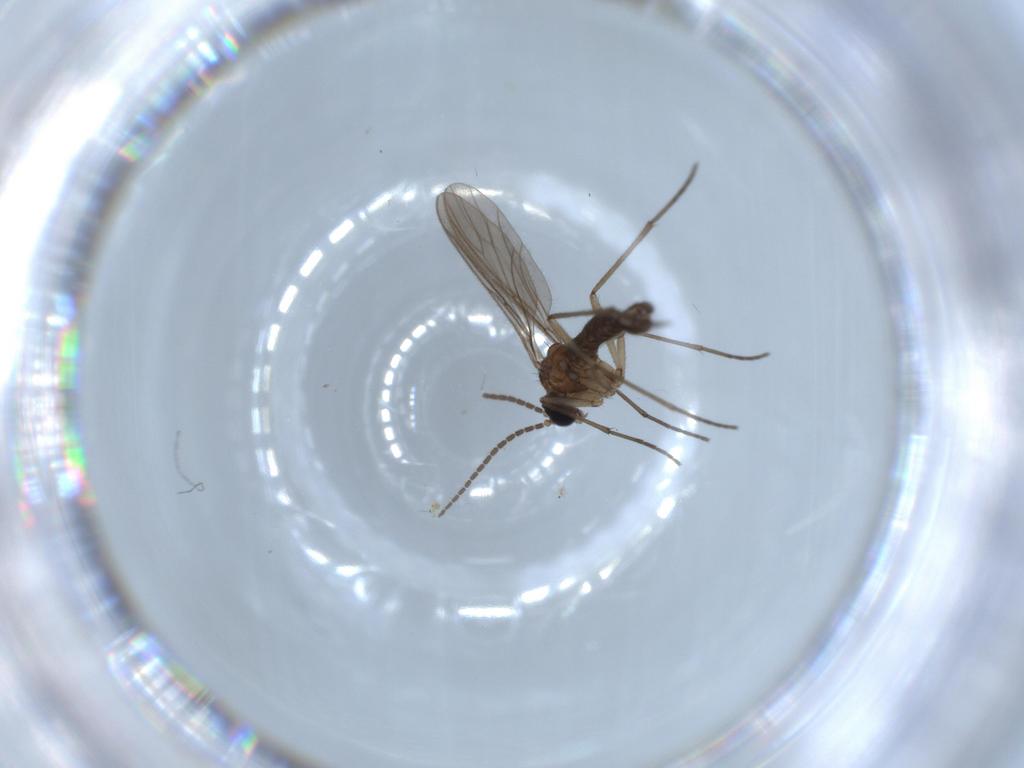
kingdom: Animalia
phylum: Arthropoda
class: Insecta
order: Diptera
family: Sciaridae
